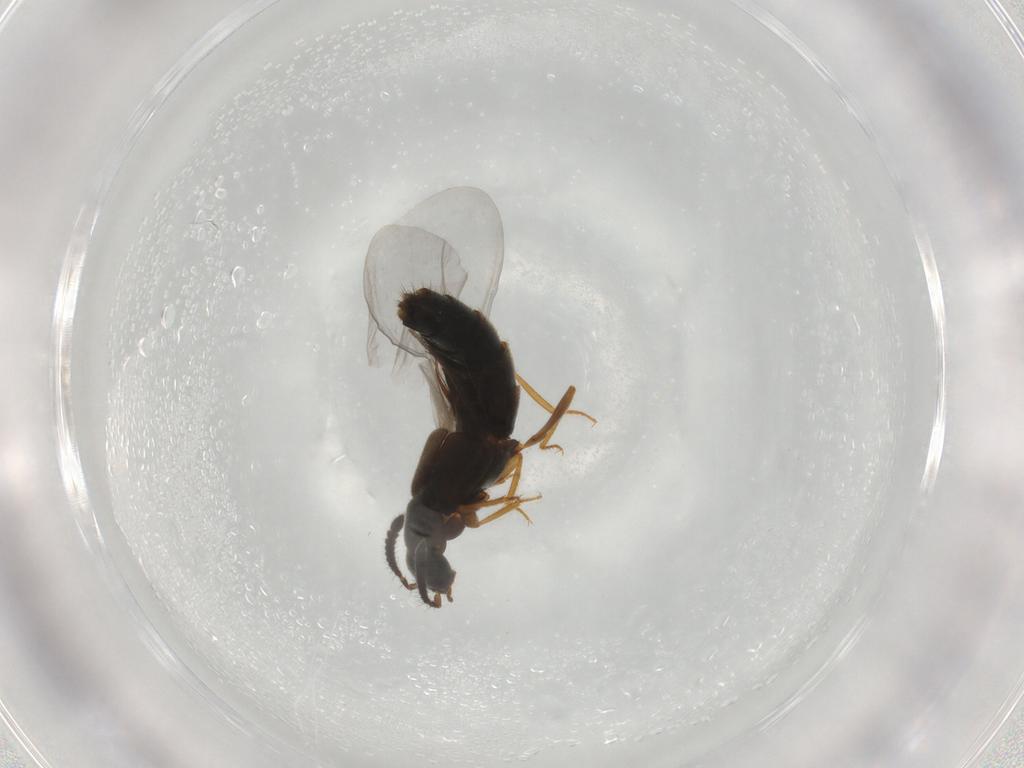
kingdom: Animalia
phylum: Arthropoda
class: Insecta
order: Coleoptera
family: Staphylinidae
